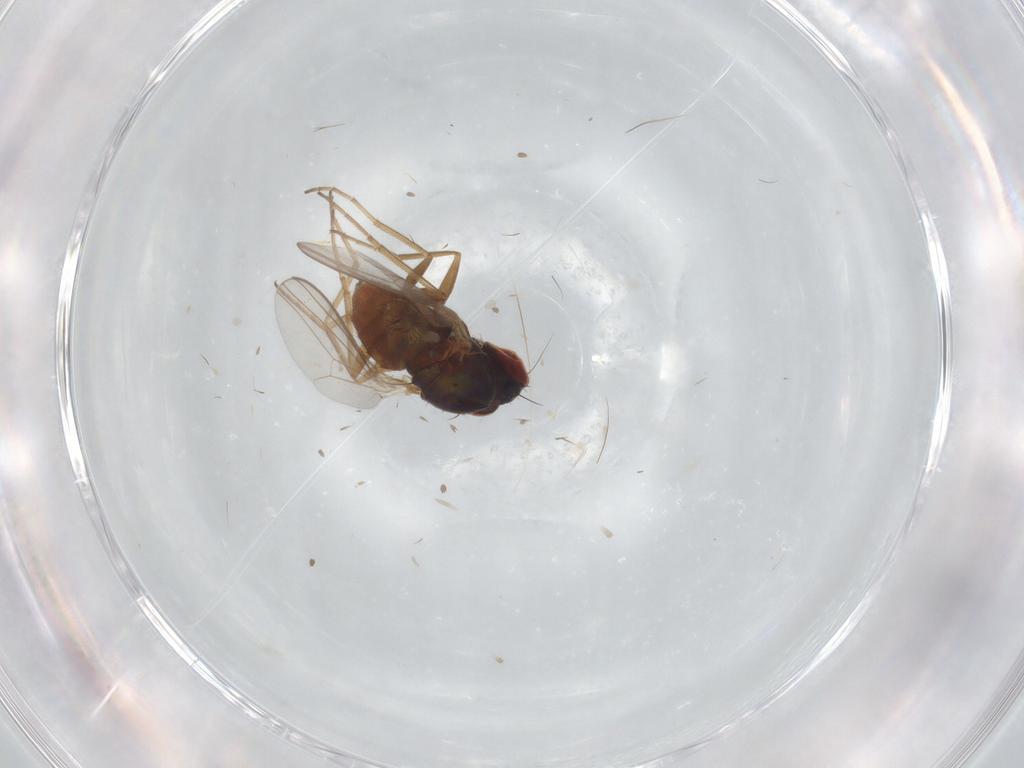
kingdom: Animalia
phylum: Arthropoda
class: Insecta
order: Diptera
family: Dolichopodidae
